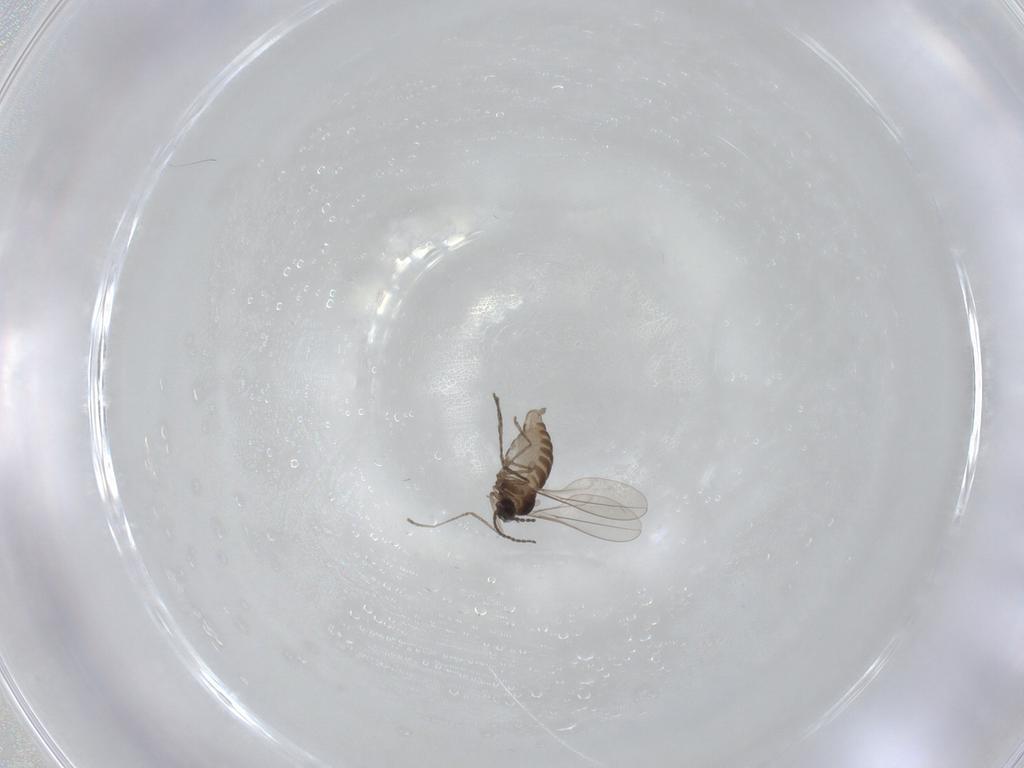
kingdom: Animalia
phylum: Arthropoda
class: Insecta
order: Diptera
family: Cecidomyiidae
